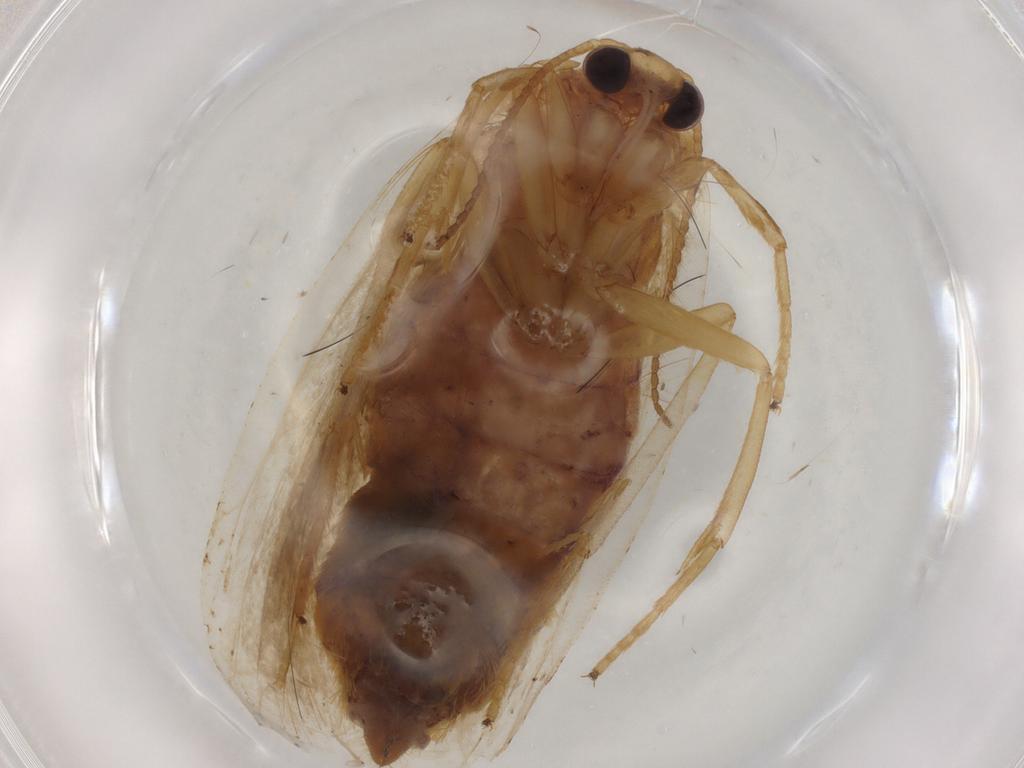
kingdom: Animalia
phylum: Arthropoda
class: Insecta
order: Lepidoptera
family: Erebidae
